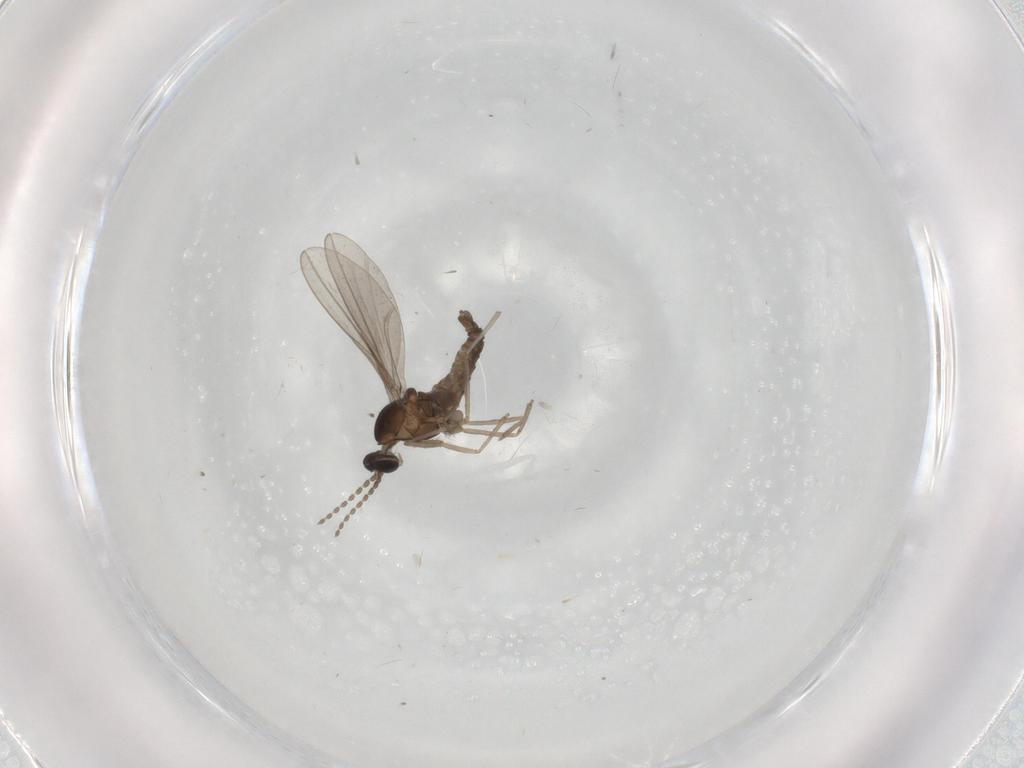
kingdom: Animalia
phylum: Arthropoda
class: Insecta
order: Diptera
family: Cecidomyiidae
